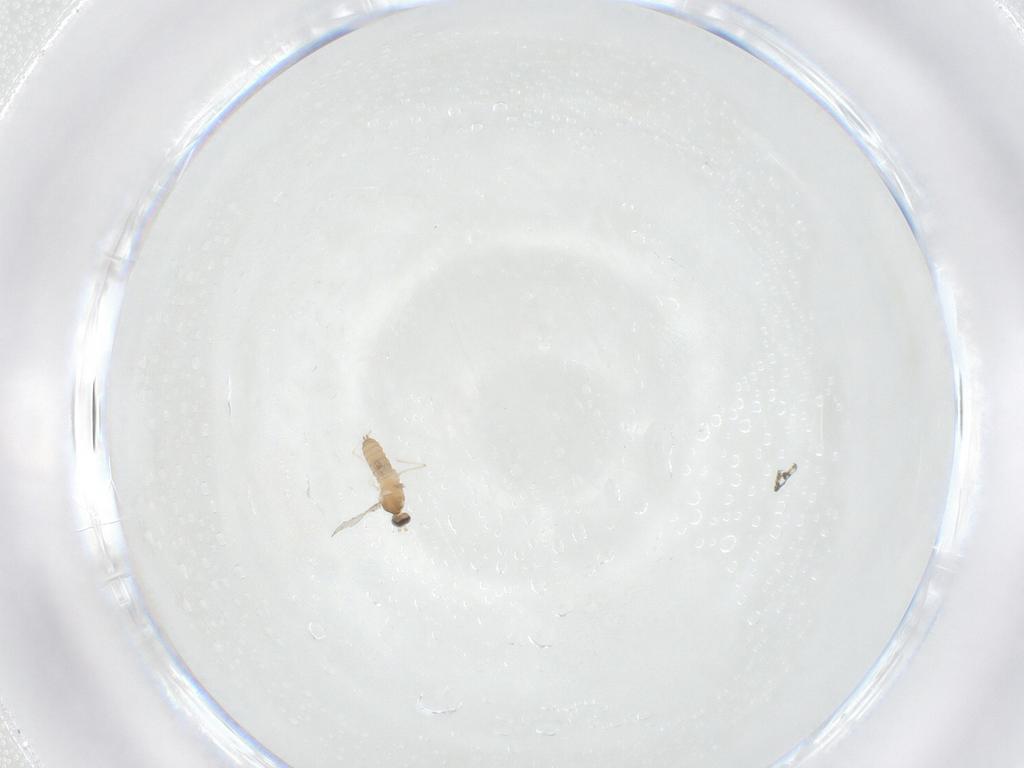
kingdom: Animalia
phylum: Arthropoda
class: Insecta
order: Diptera
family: Cecidomyiidae
